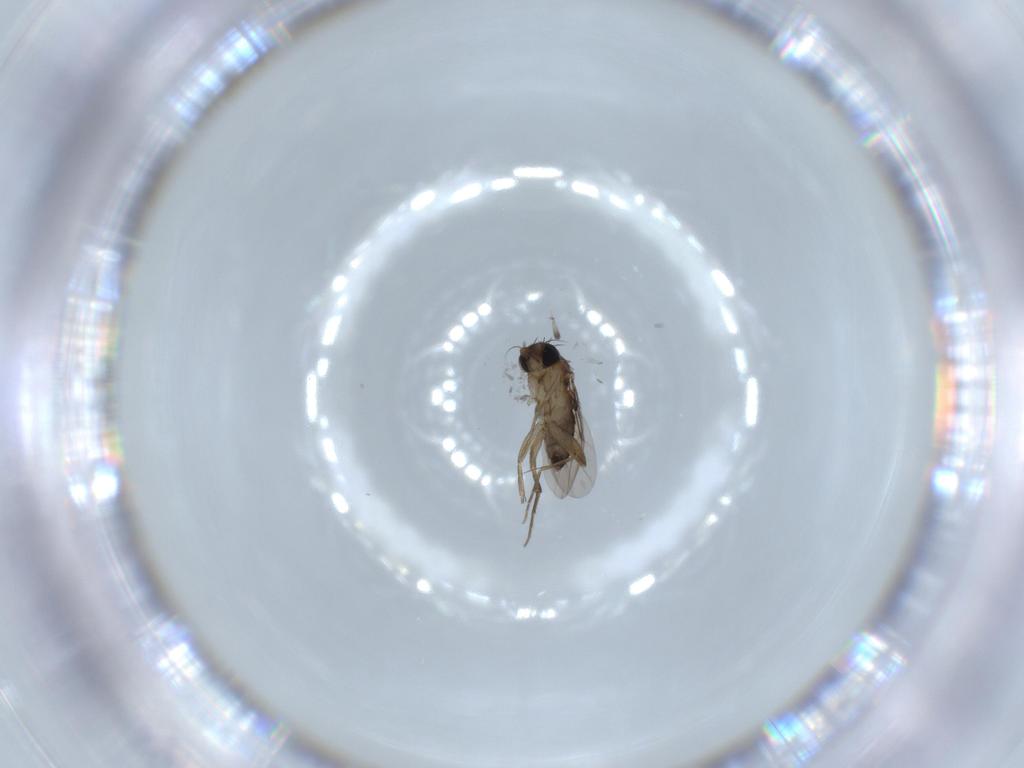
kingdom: Animalia
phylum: Arthropoda
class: Insecta
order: Diptera
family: Phoridae
